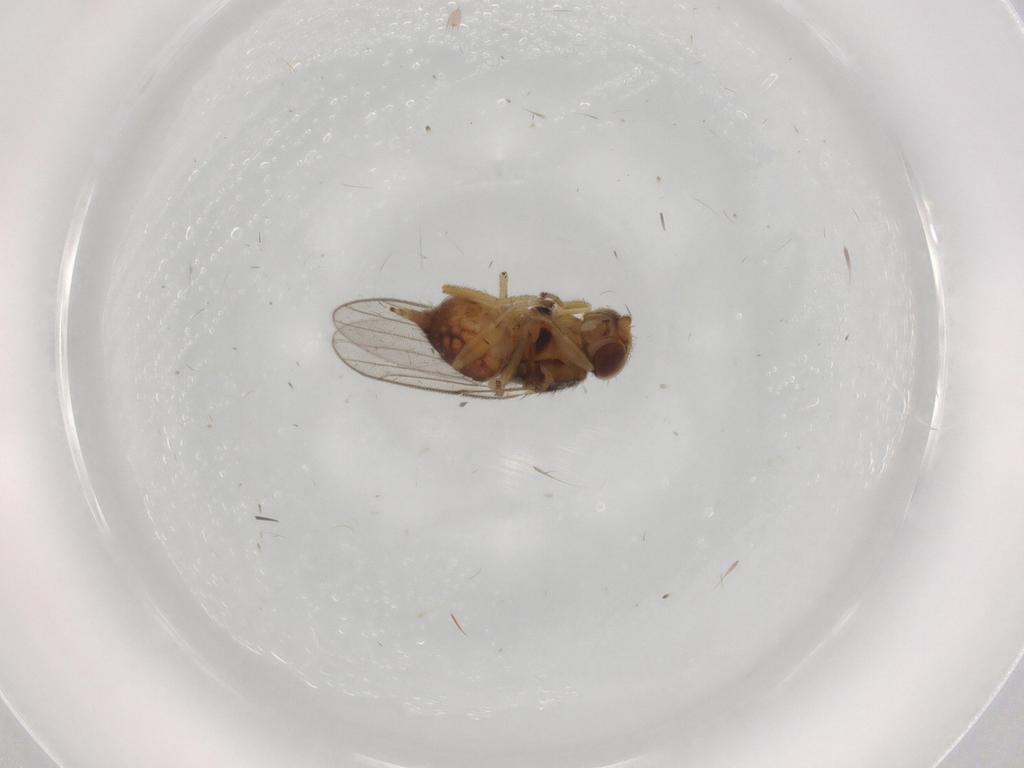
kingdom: Animalia
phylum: Arthropoda
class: Insecta
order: Diptera
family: Chloropidae
